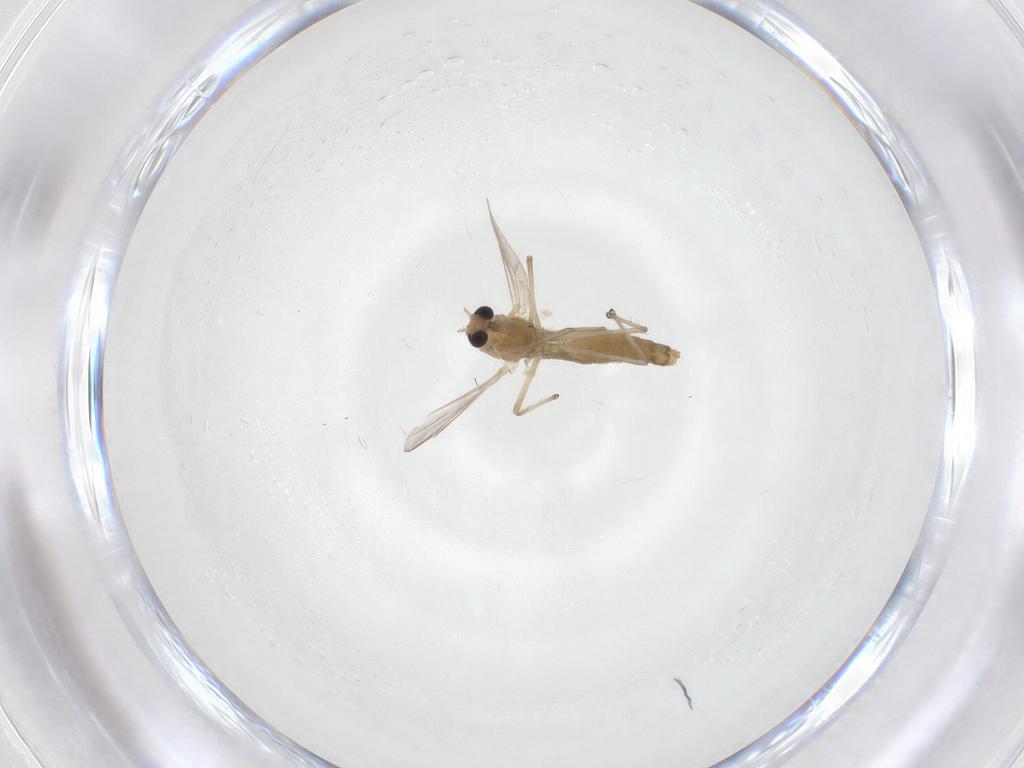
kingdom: Animalia
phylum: Arthropoda
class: Insecta
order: Diptera
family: Chironomidae
